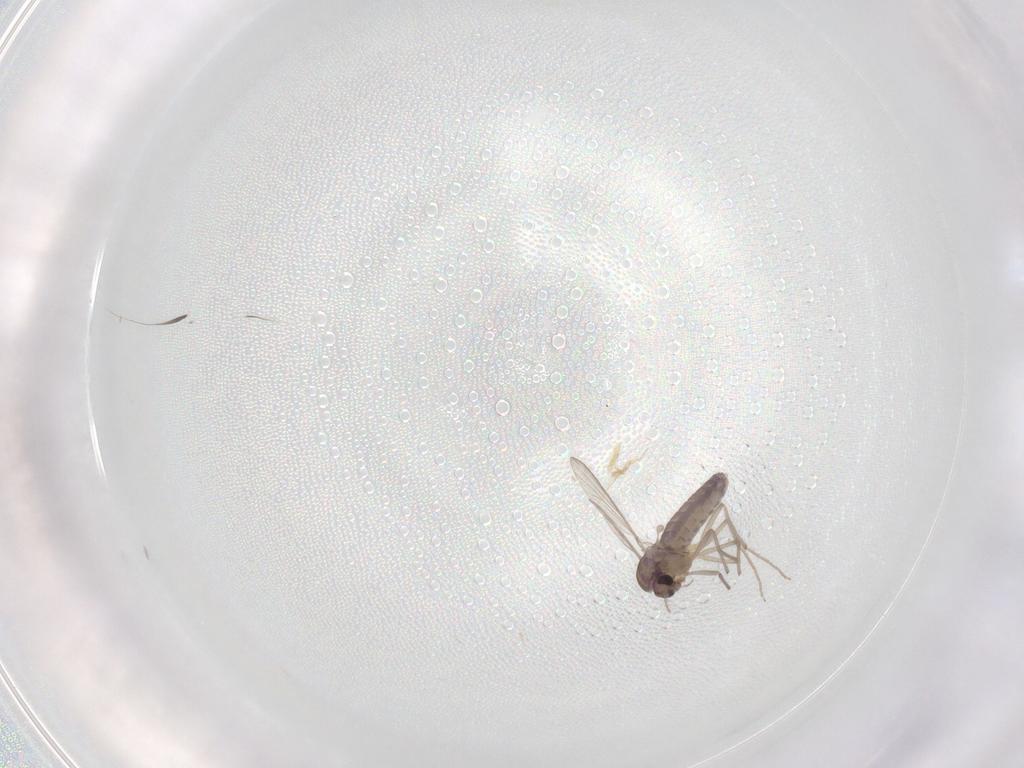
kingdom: Animalia
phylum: Arthropoda
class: Insecta
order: Diptera
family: Chironomidae
